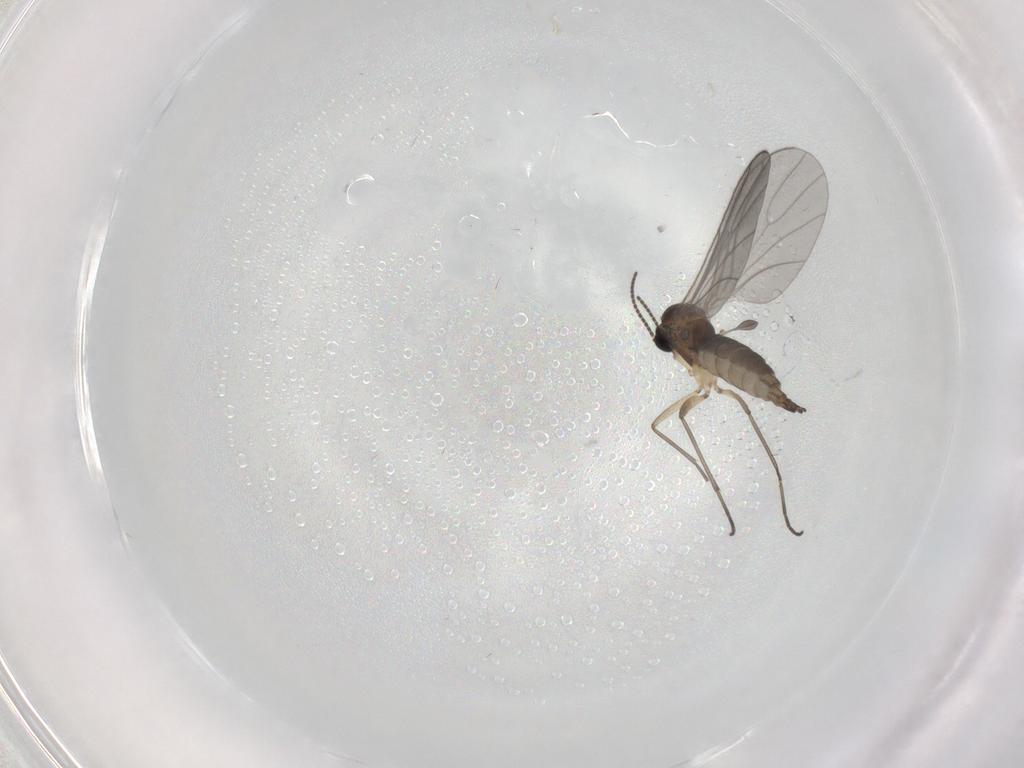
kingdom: Animalia
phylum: Arthropoda
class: Insecta
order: Diptera
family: Sciaridae
